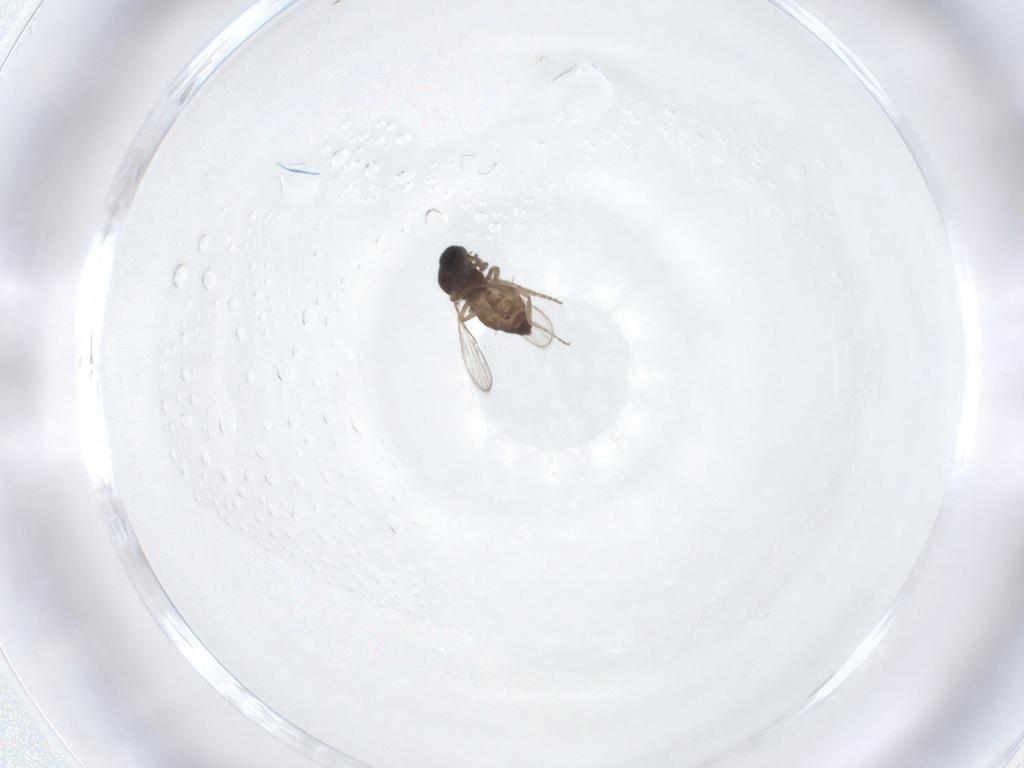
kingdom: Animalia
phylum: Arthropoda
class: Insecta
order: Diptera
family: Ceratopogonidae
